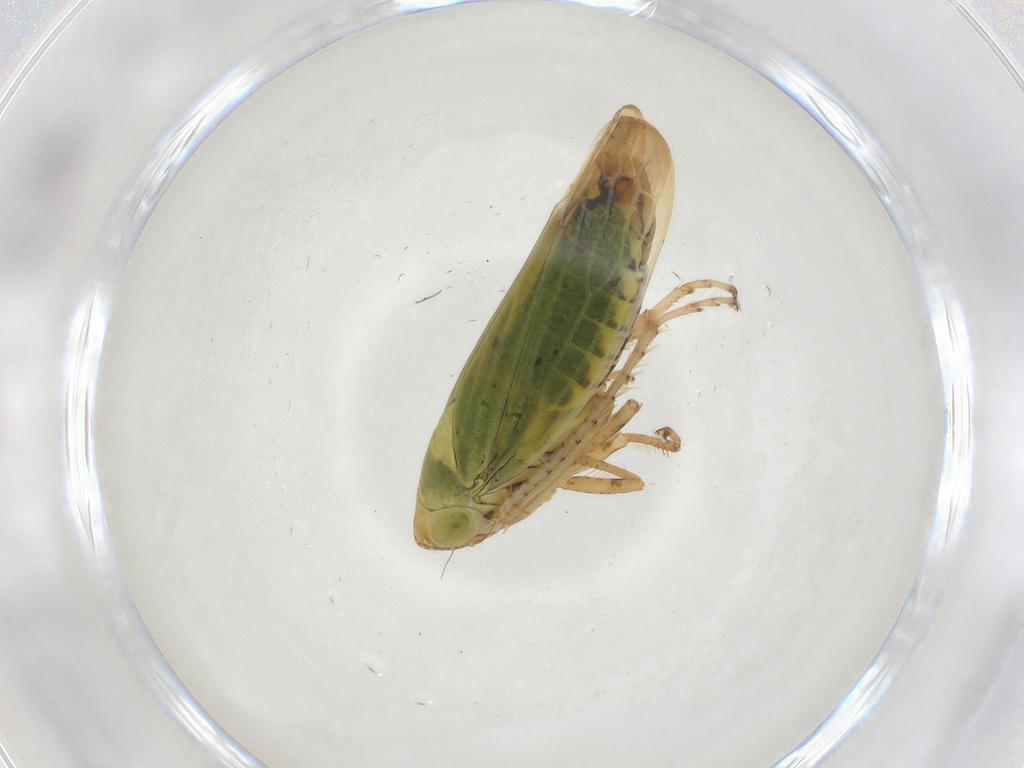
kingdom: Animalia
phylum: Arthropoda
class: Insecta
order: Hemiptera
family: Cicadellidae
